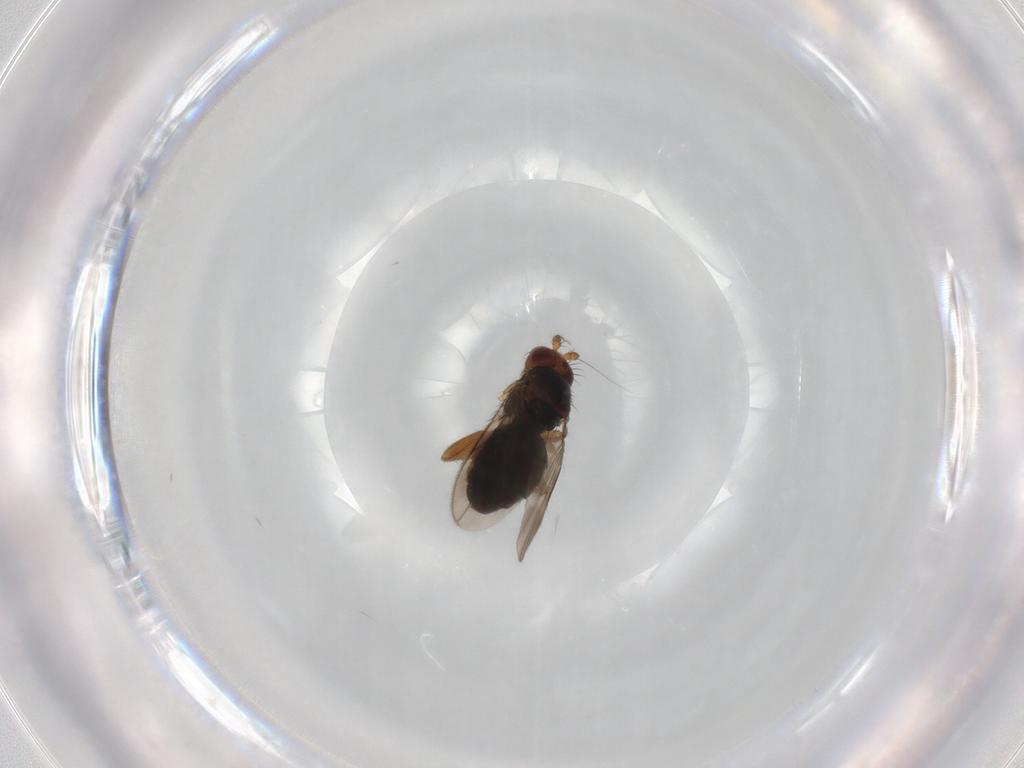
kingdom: Animalia
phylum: Arthropoda
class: Insecta
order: Diptera
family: Sphaeroceridae
